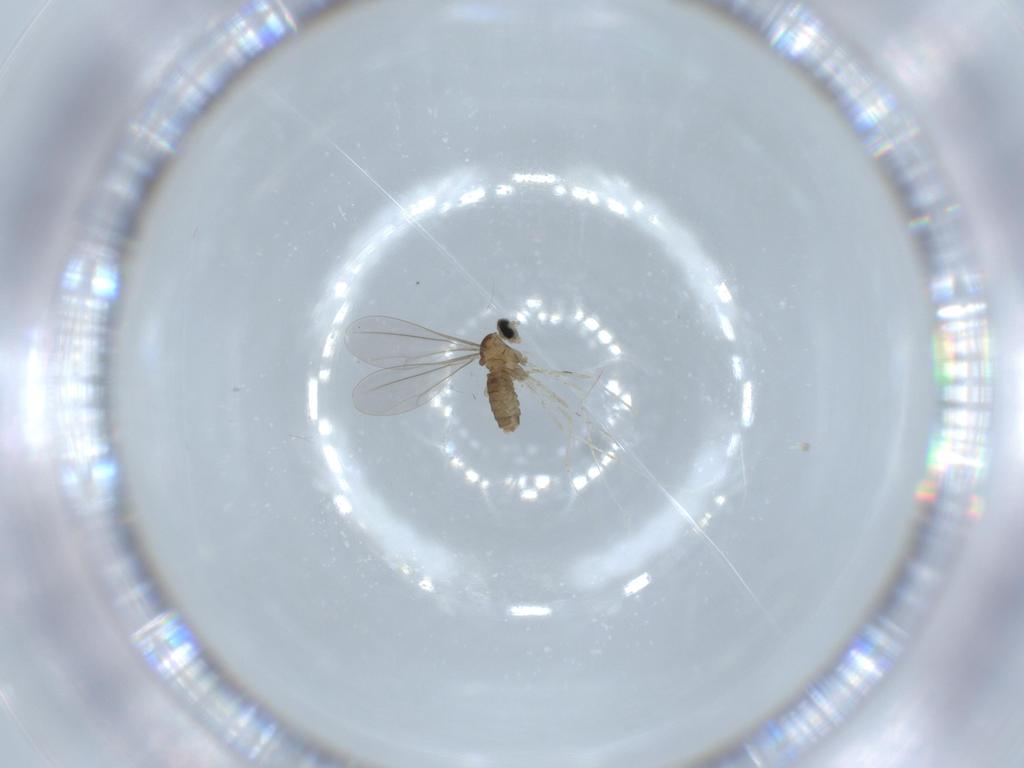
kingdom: Animalia
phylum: Arthropoda
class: Insecta
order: Diptera
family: Cecidomyiidae
